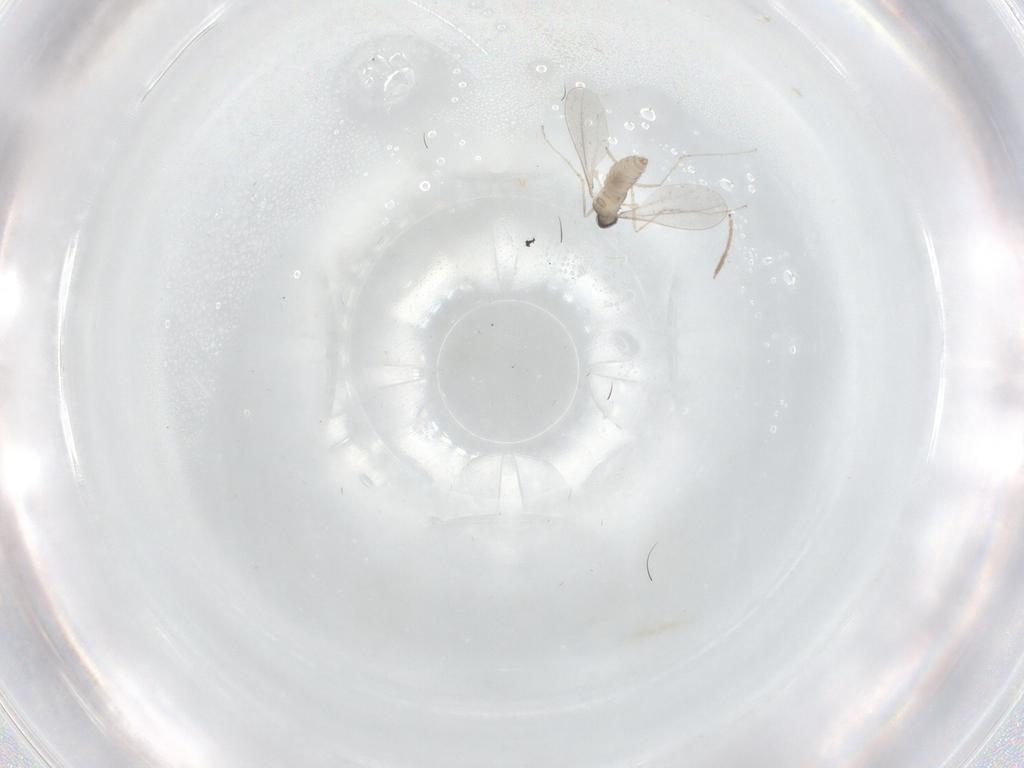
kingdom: Animalia
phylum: Arthropoda
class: Insecta
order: Diptera
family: Cecidomyiidae
